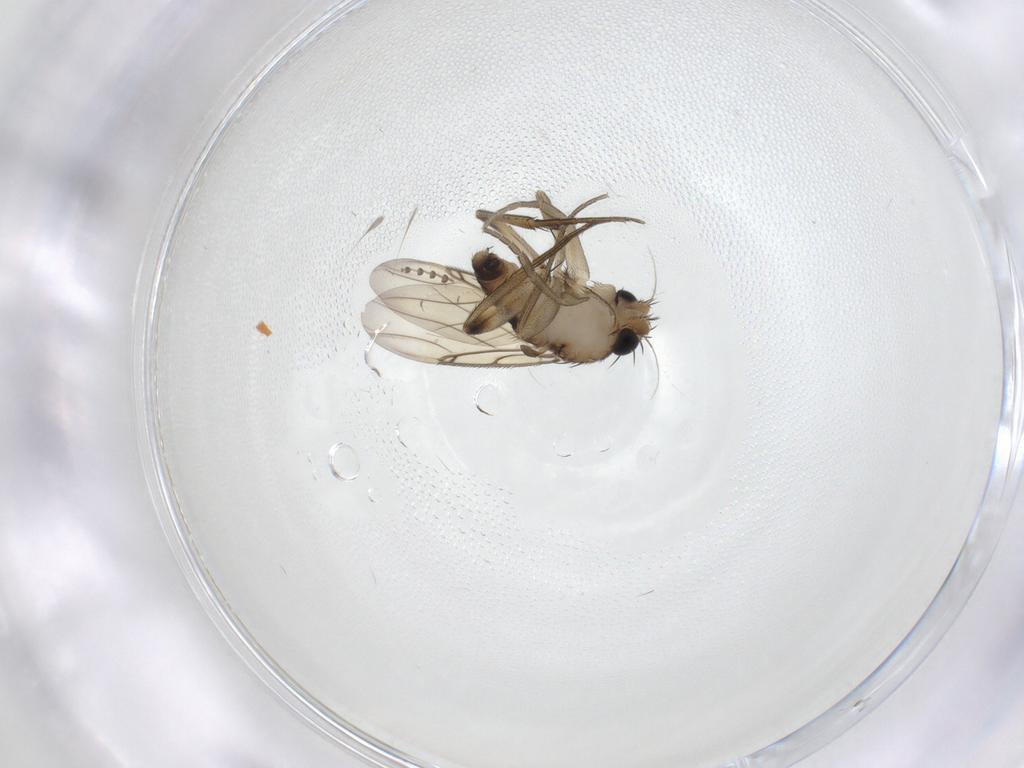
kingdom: Animalia
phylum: Arthropoda
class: Insecta
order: Diptera
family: Phoridae
